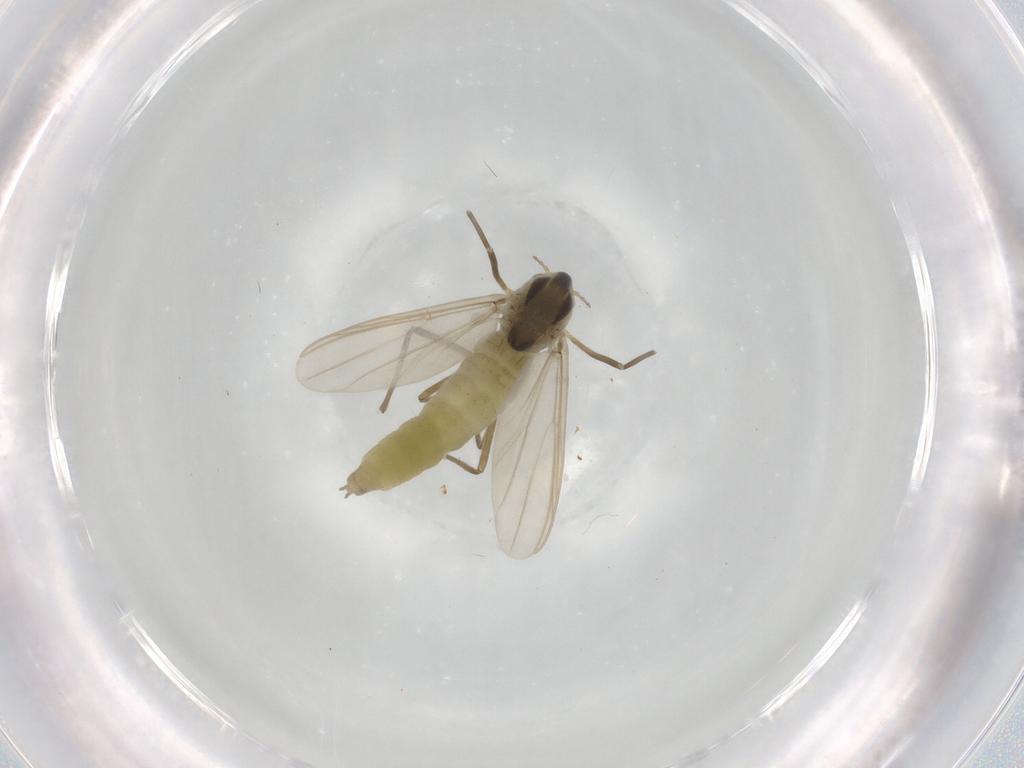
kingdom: Animalia
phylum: Arthropoda
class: Insecta
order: Diptera
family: Chironomidae
